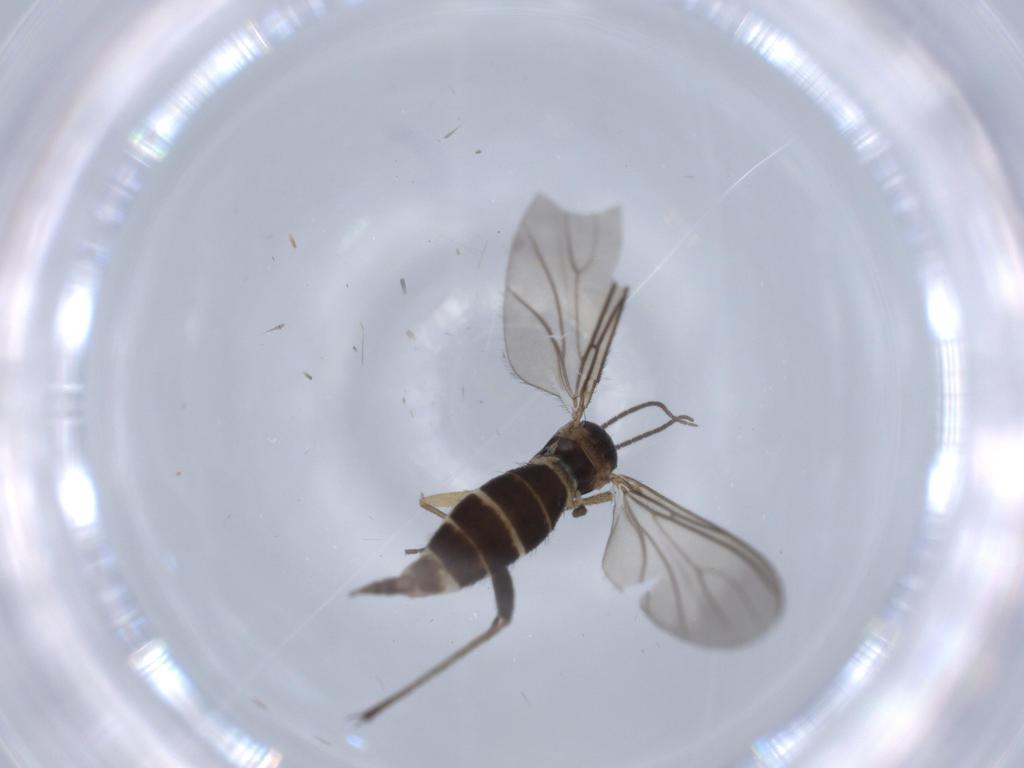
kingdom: Animalia
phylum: Arthropoda
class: Insecta
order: Diptera
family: Sciaridae
